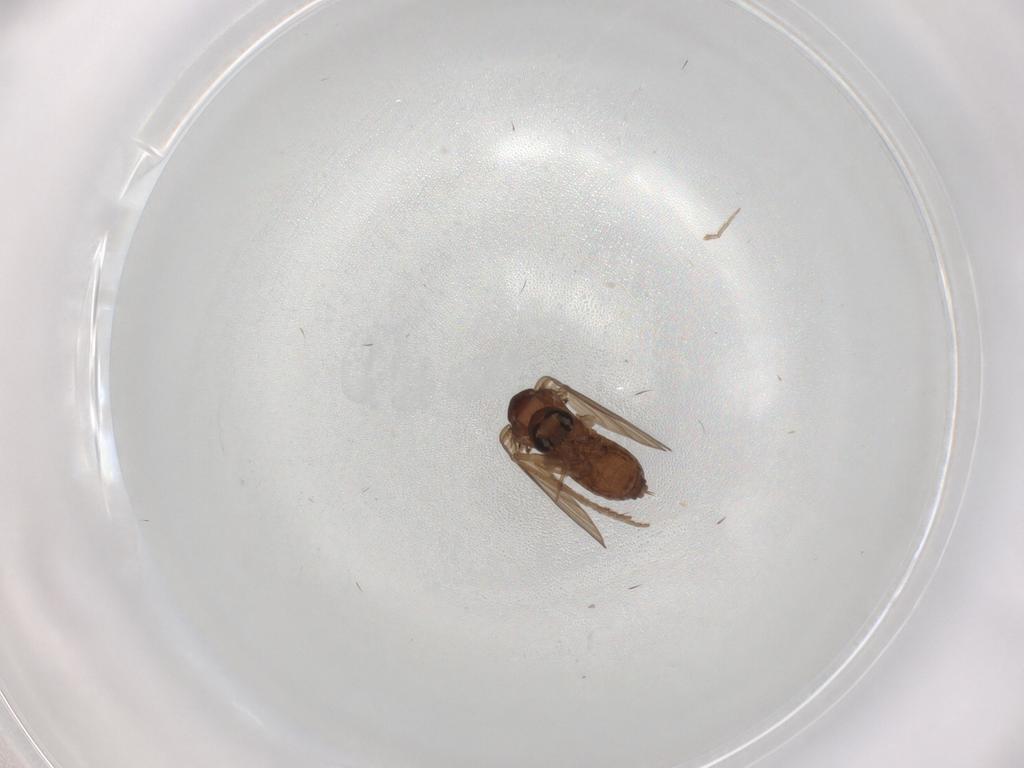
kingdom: Animalia
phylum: Arthropoda
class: Insecta
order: Diptera
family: Psychodidae
